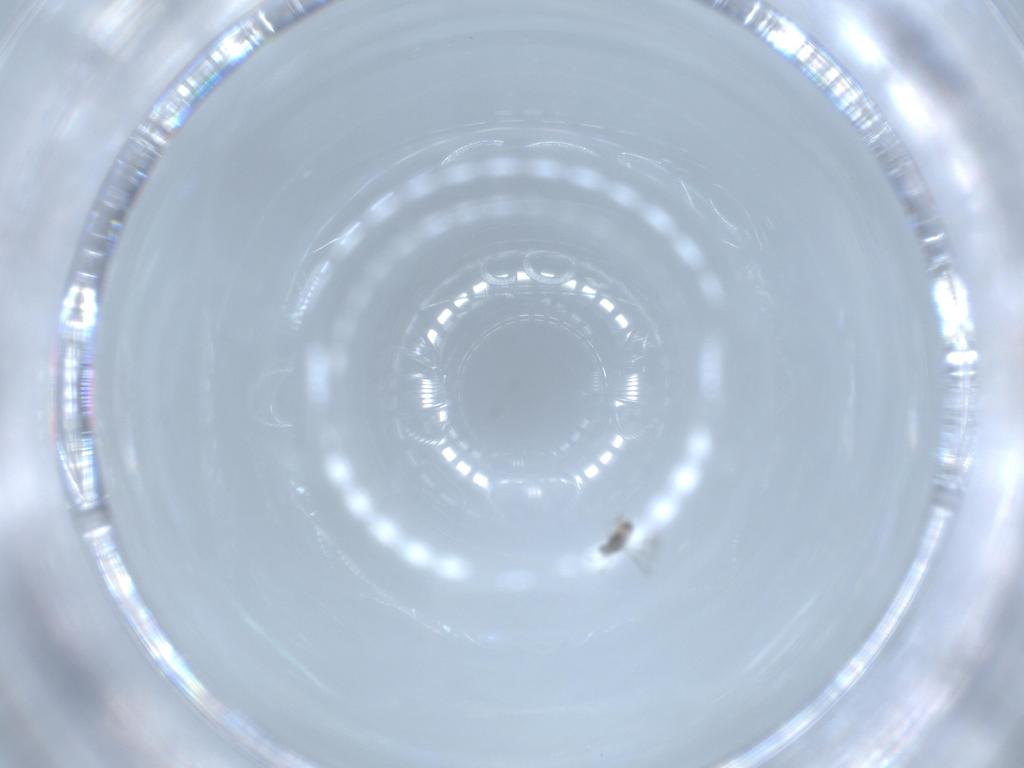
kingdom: Animalia
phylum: Arthropoda
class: Insecta
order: Hymenoptera
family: Platygastridae
